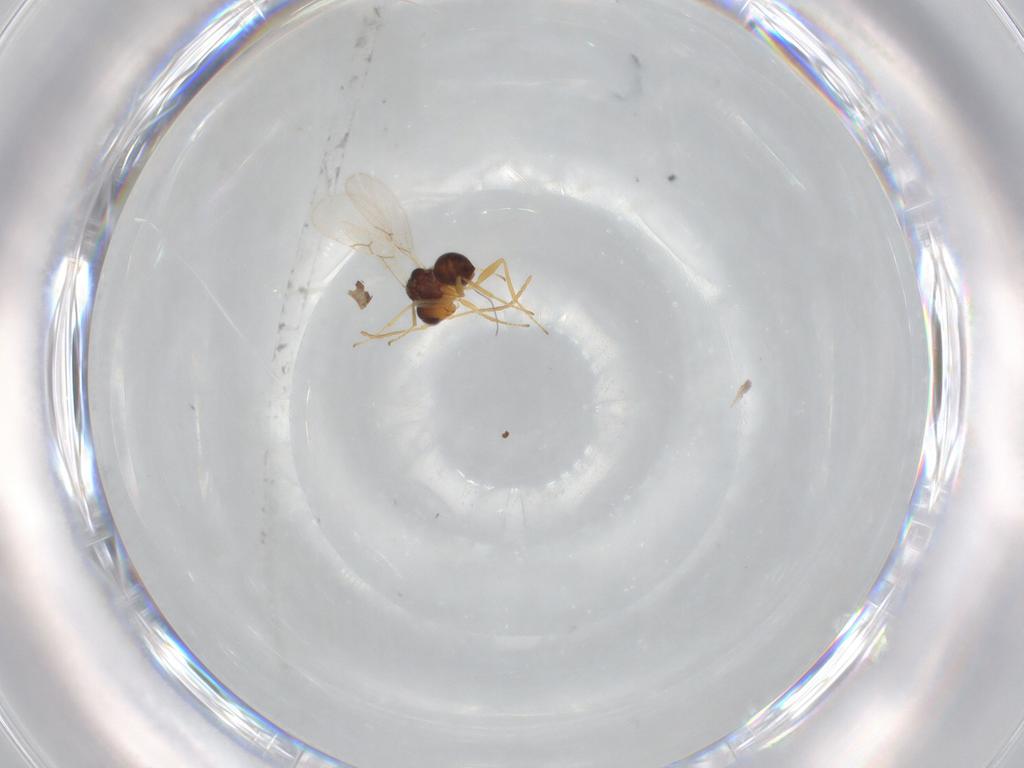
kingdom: Animalia
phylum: Arthropoda
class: Insecta
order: Hymenoptera
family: Figitidae
